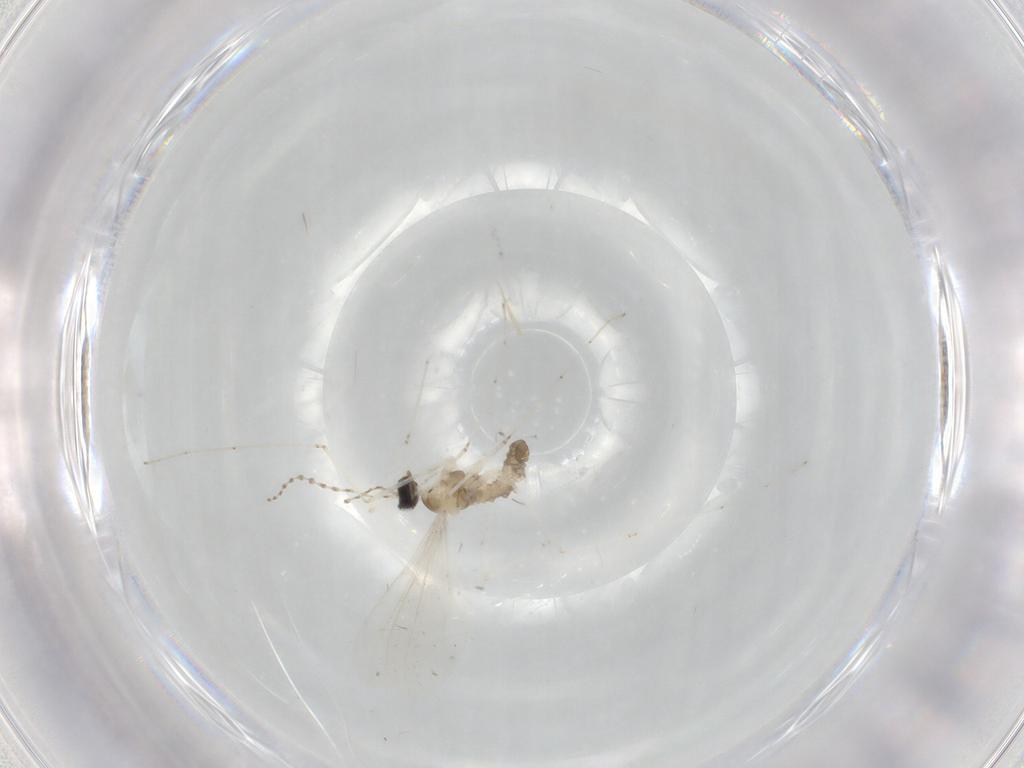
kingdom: Animalia
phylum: Arthropoda
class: Insecta
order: Diptera
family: Cecidomyiidae
